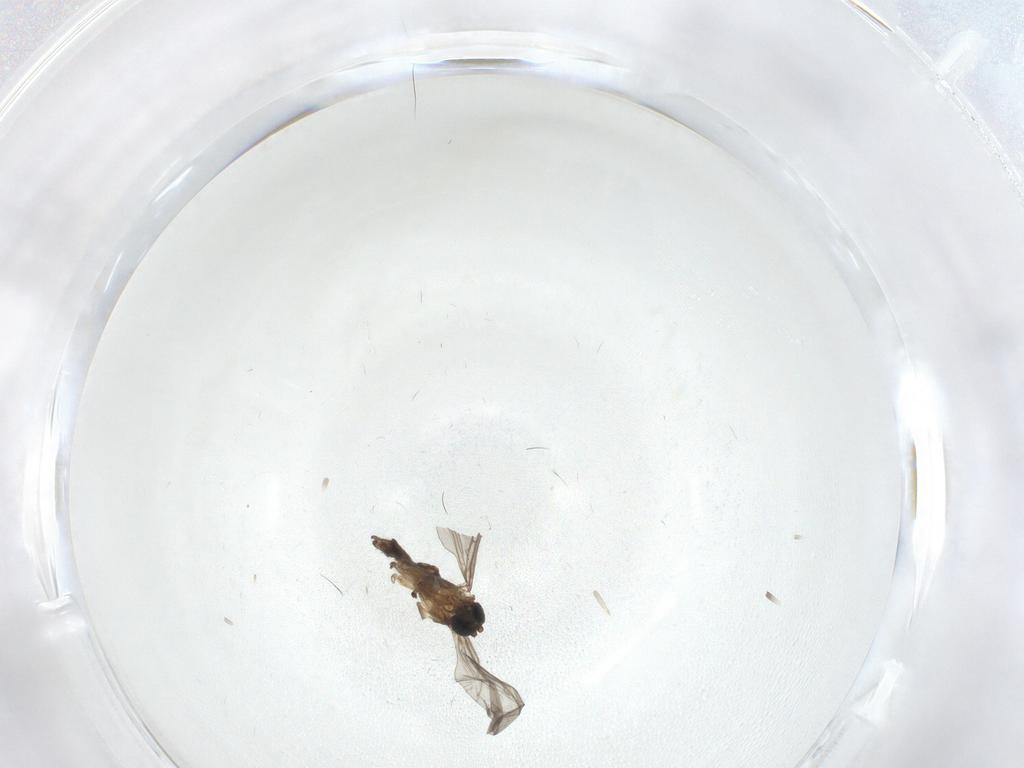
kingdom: Animalia
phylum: Arthropoda
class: Insecta
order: Diptera
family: Sciaridae
